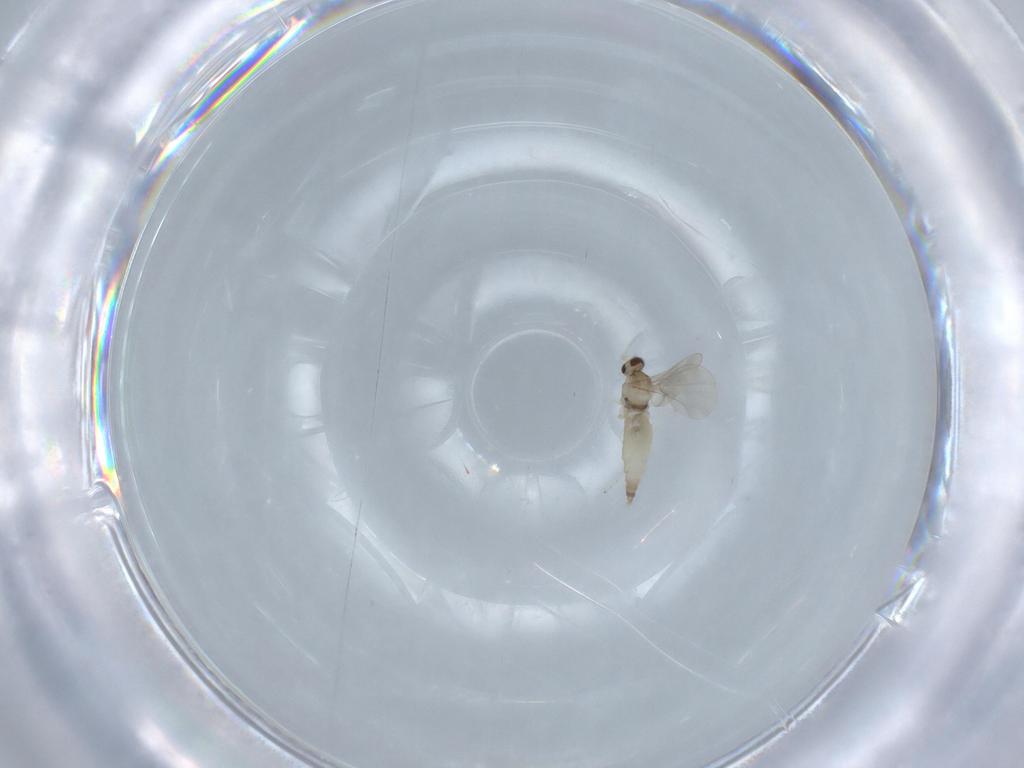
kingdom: Animalia
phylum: Arthropoda
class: Insecta
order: Diptera
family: Cecidomyiidae
